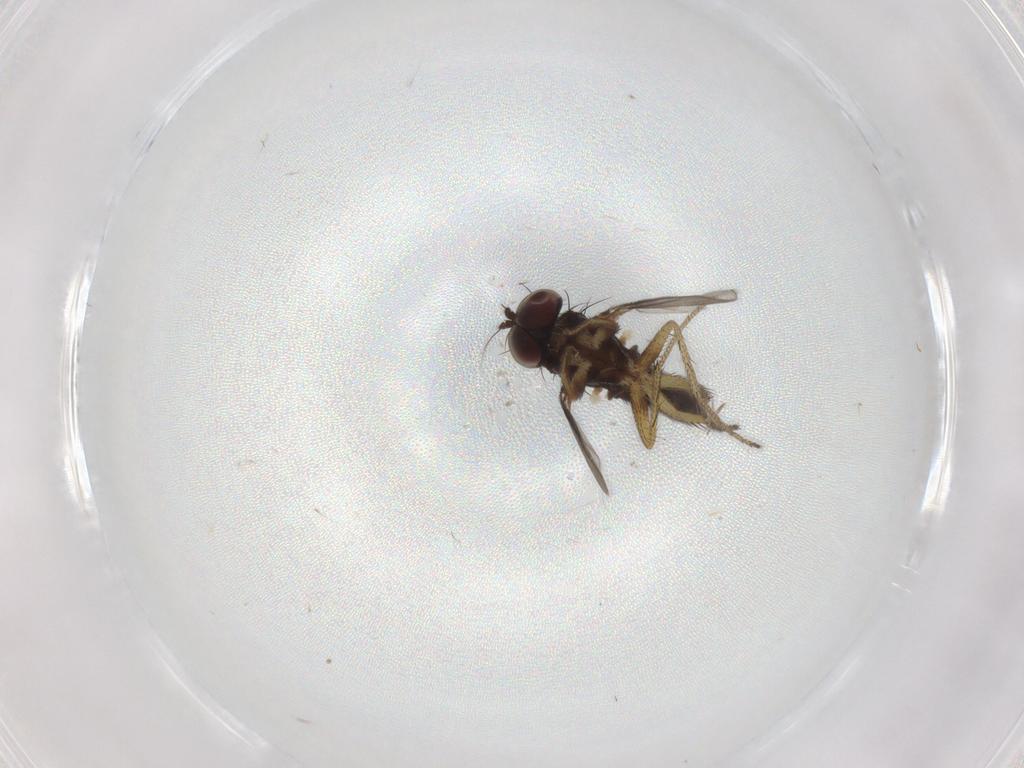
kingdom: Animalia
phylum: Arthropoda
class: Insecta
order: Diptera
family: Dolichopodidae
